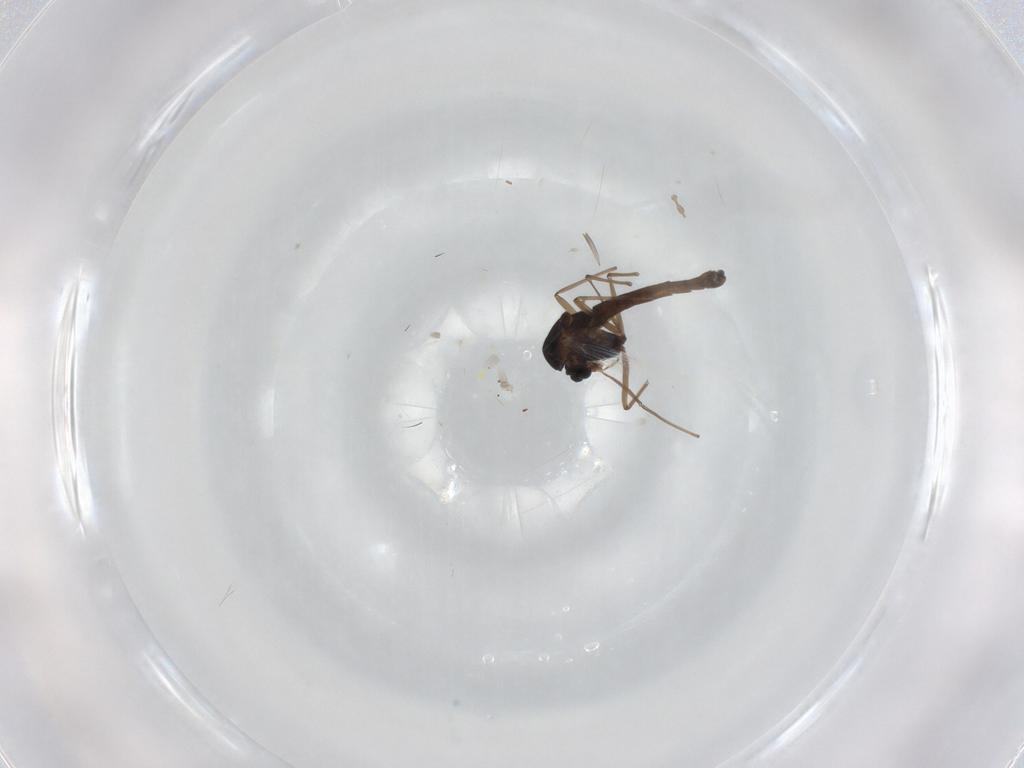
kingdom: Animalia
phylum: Arthropoda
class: Insecta
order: Diptera
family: Chironomidae
